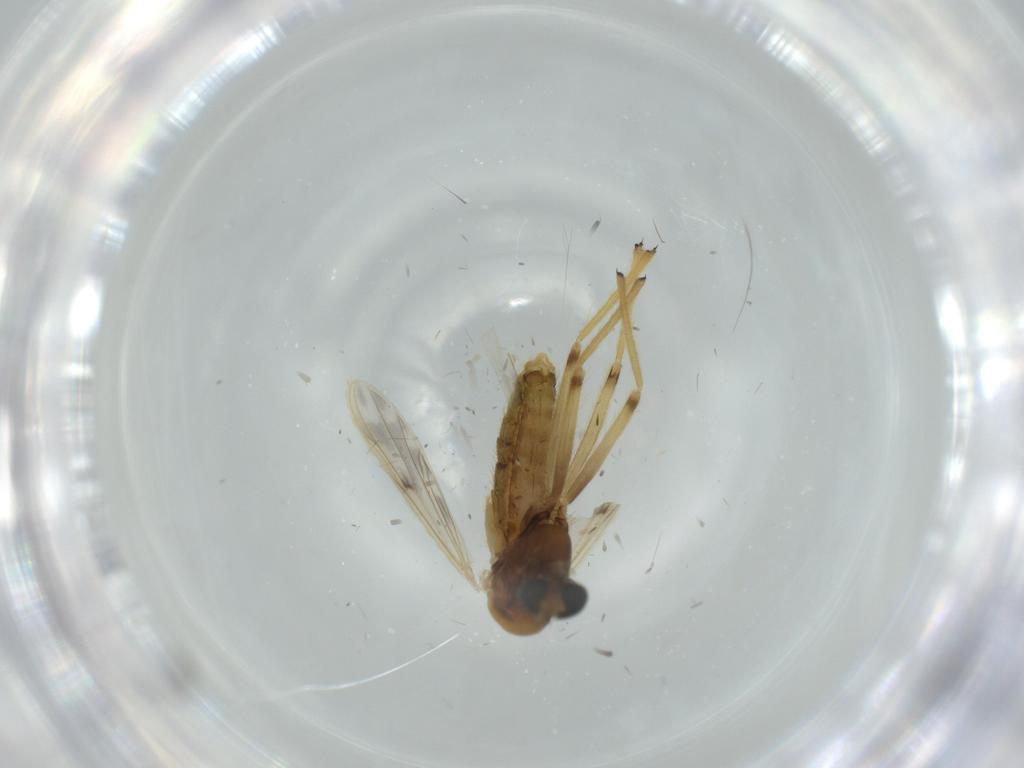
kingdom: Animalia
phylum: Arthropoda
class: Insecta
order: Diptera
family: Chironomidae
